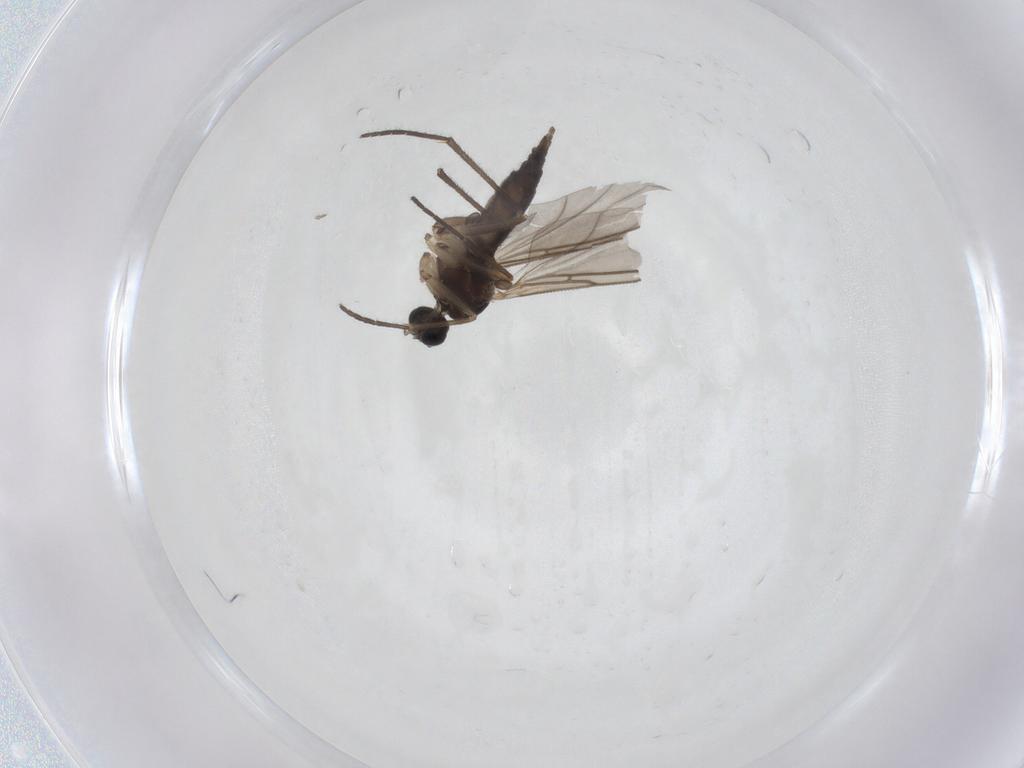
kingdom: Animalia
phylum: Arthropoda
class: Insecta
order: Diptera
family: Sciaridae
